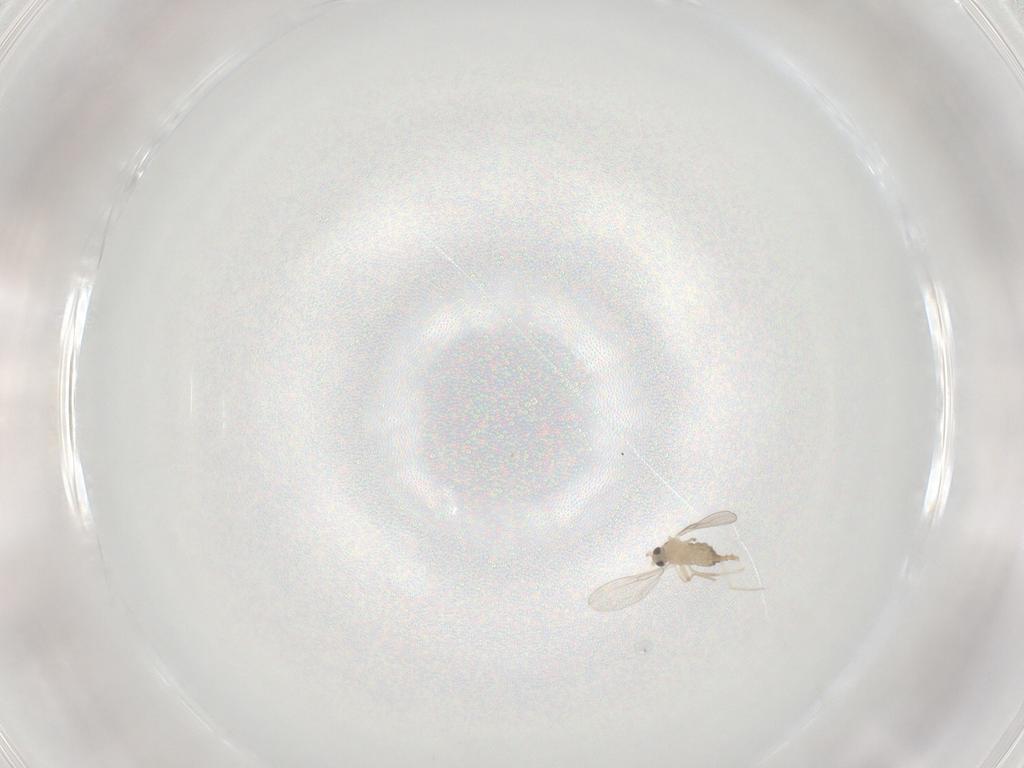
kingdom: Animalia
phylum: Arthropoda
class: Insecta
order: Diptera
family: Cecidomyiidae
